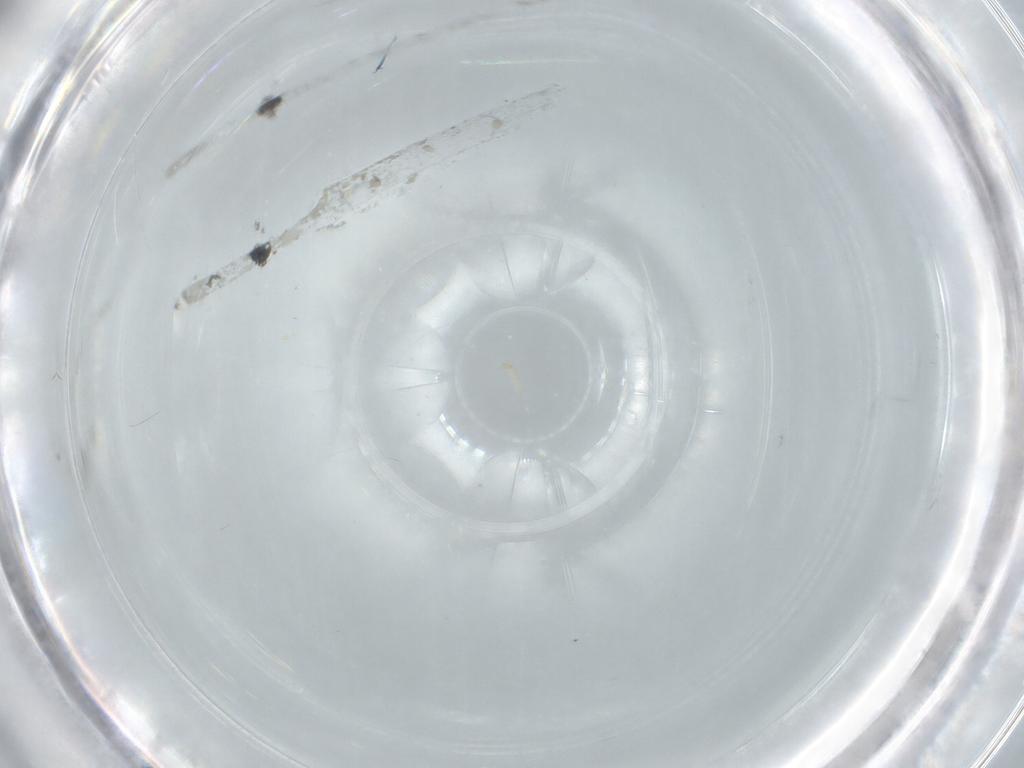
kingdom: Animalia
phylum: Arthropoda
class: Insecta
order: Diptera
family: Cecidomyiidae
